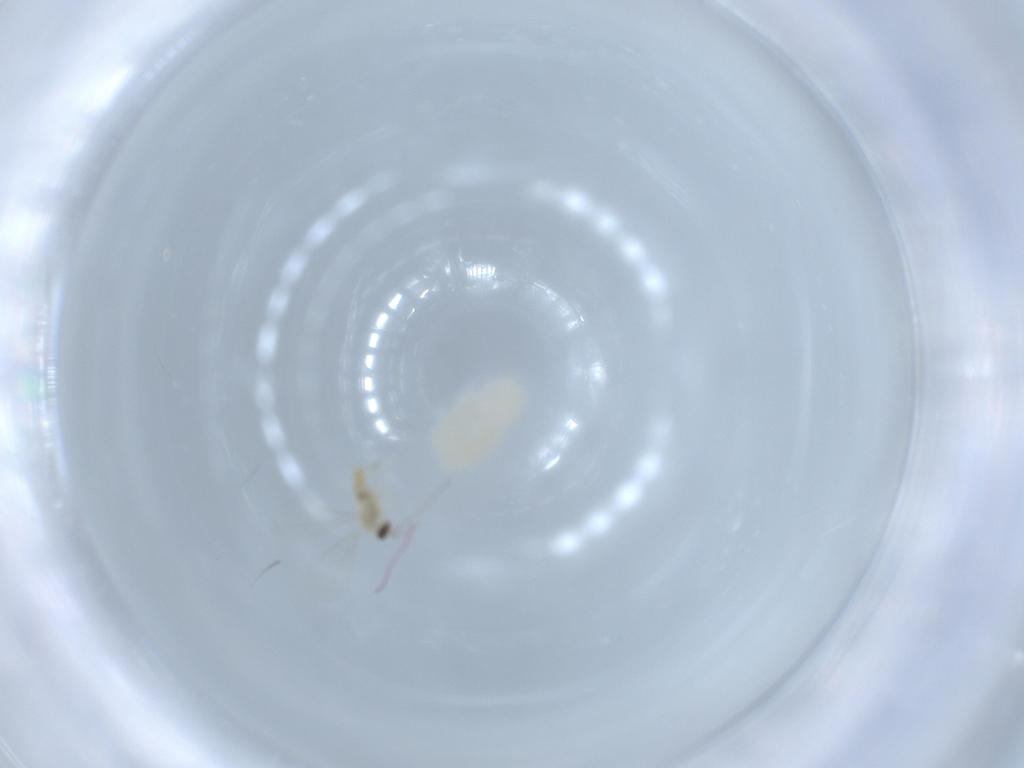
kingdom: Animalia
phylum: Arthropoda
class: Insecta
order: Diptera
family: Cecidomyiidae
